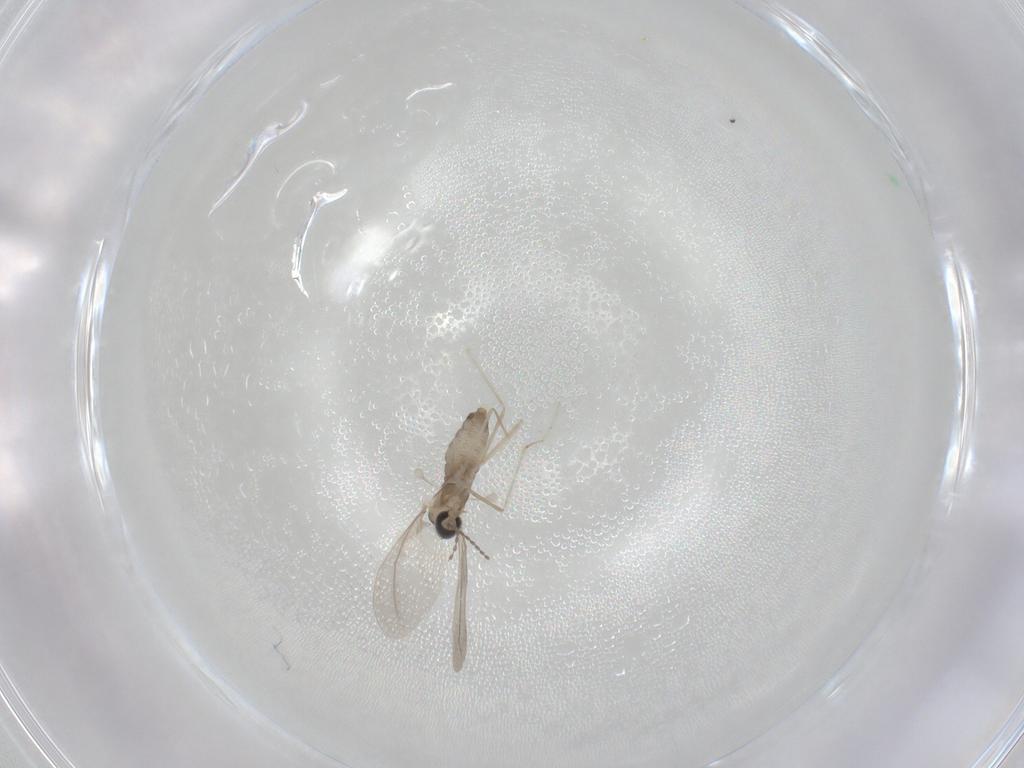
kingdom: Animalia
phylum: Arthropoda
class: Insecta
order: Diptera
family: Cecidomyiidae
